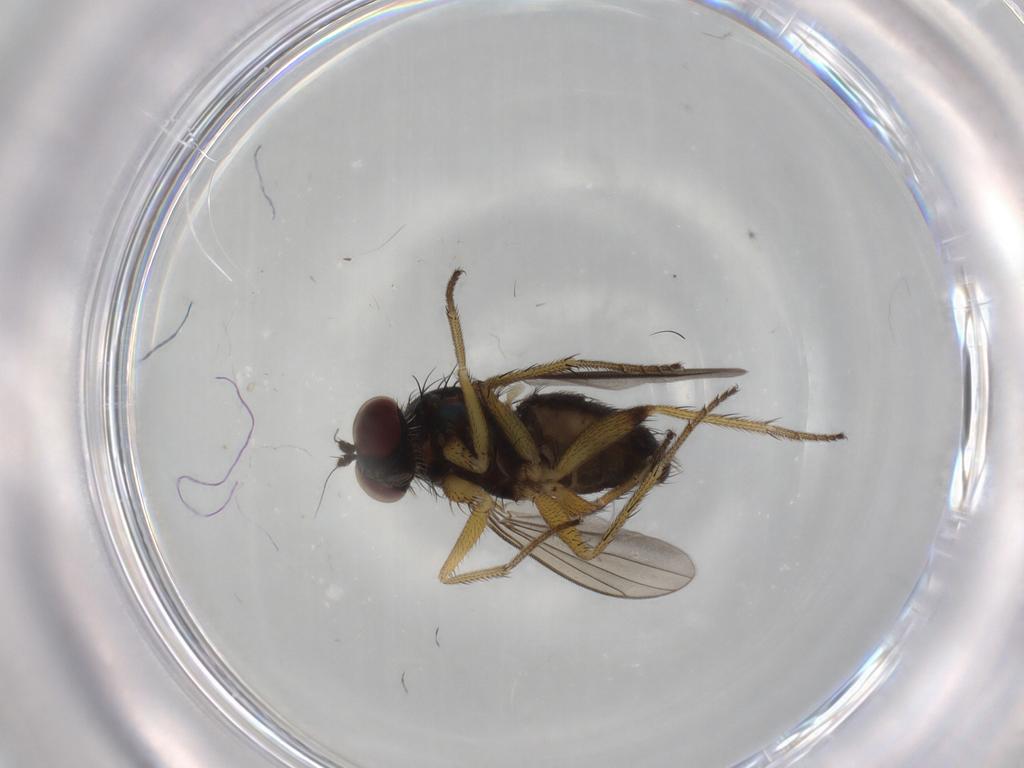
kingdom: Animalia
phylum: Arthropoda
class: Insecta
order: Diptera
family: Dolichopodidae
